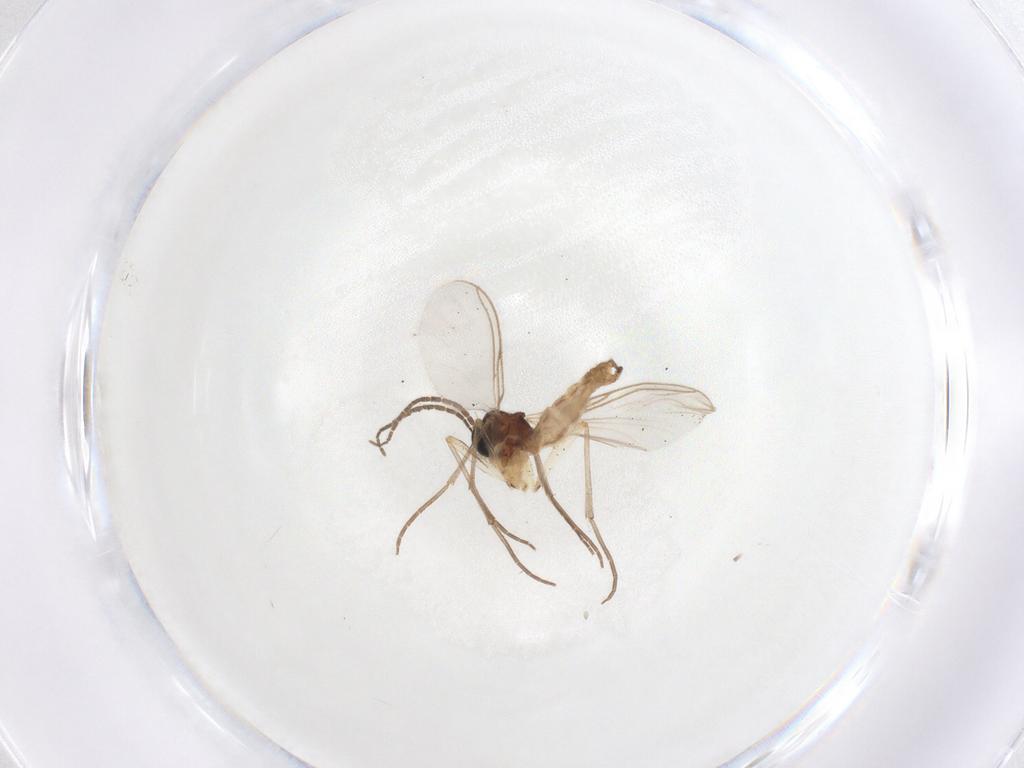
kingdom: Animalia
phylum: Arthropoda
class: Insecta
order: Diptera
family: Sciaridae
